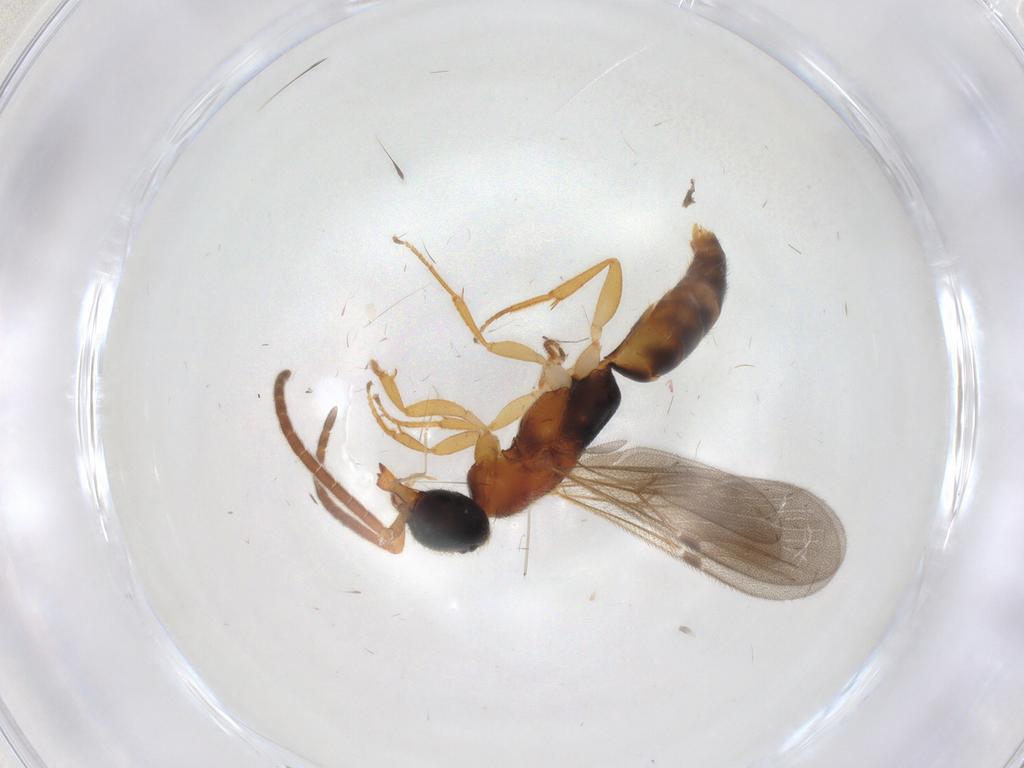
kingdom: Animalia
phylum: Arthropoda
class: Insecta
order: Hymenoptera
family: Bethylidae
